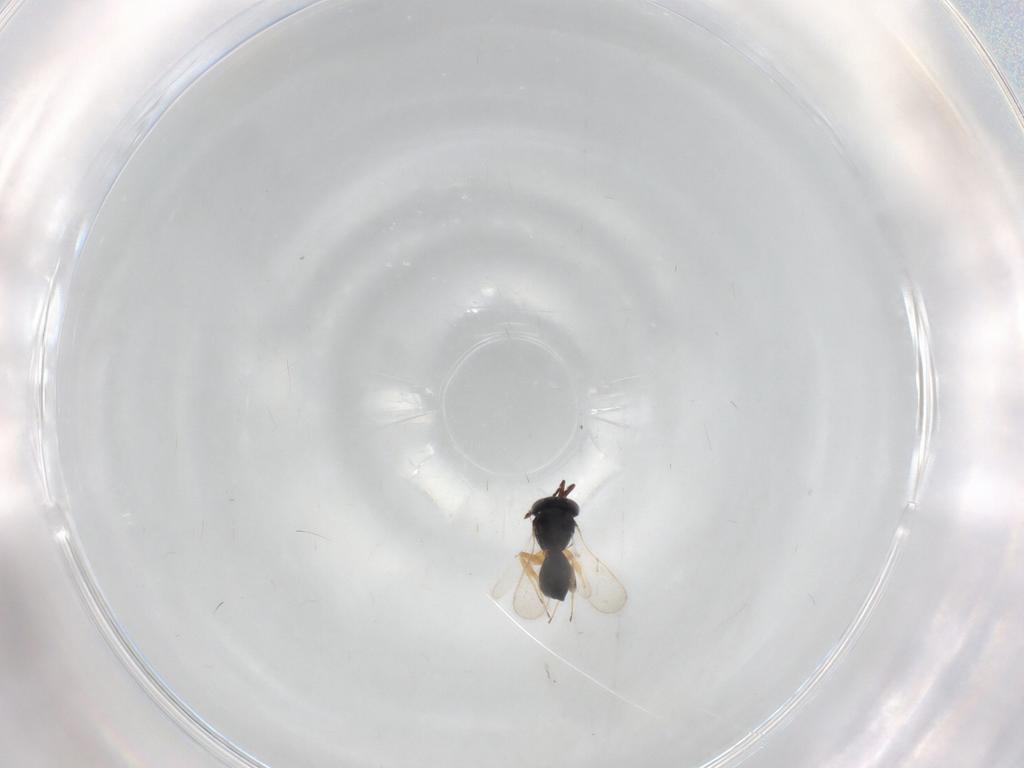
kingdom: Animalia
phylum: Arthropoda
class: Insecta
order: Hymenoptera
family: Scelionidae
